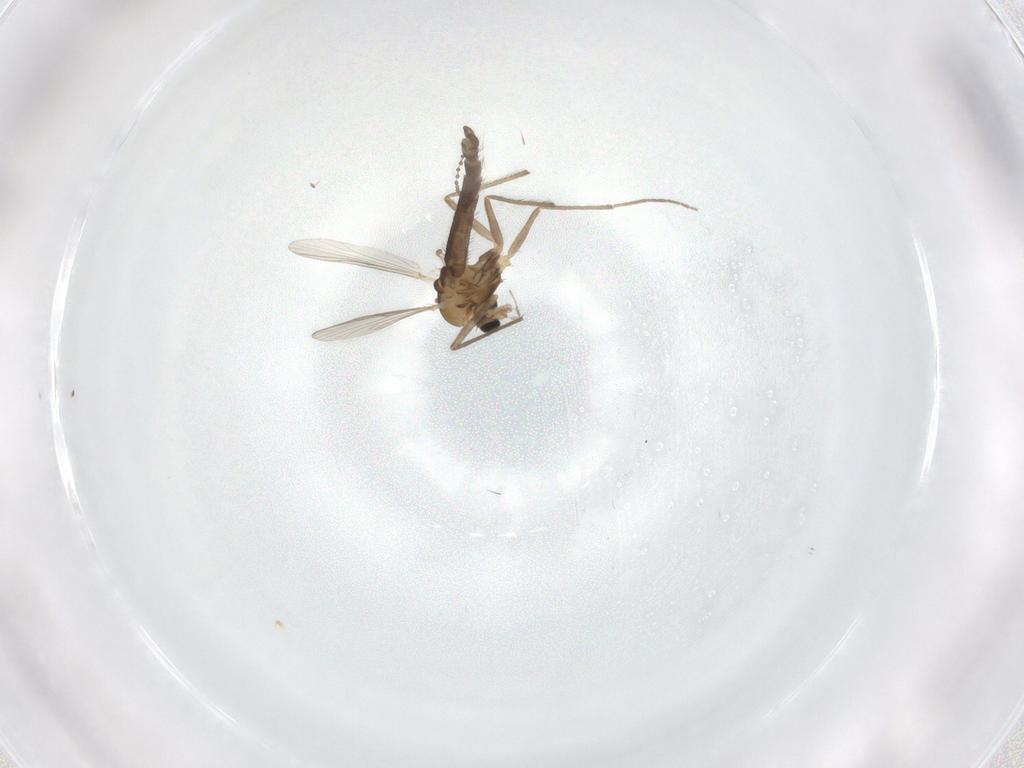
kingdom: Animalia
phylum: Arthropoda
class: Insecta
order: Diptera
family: Chironomidae
